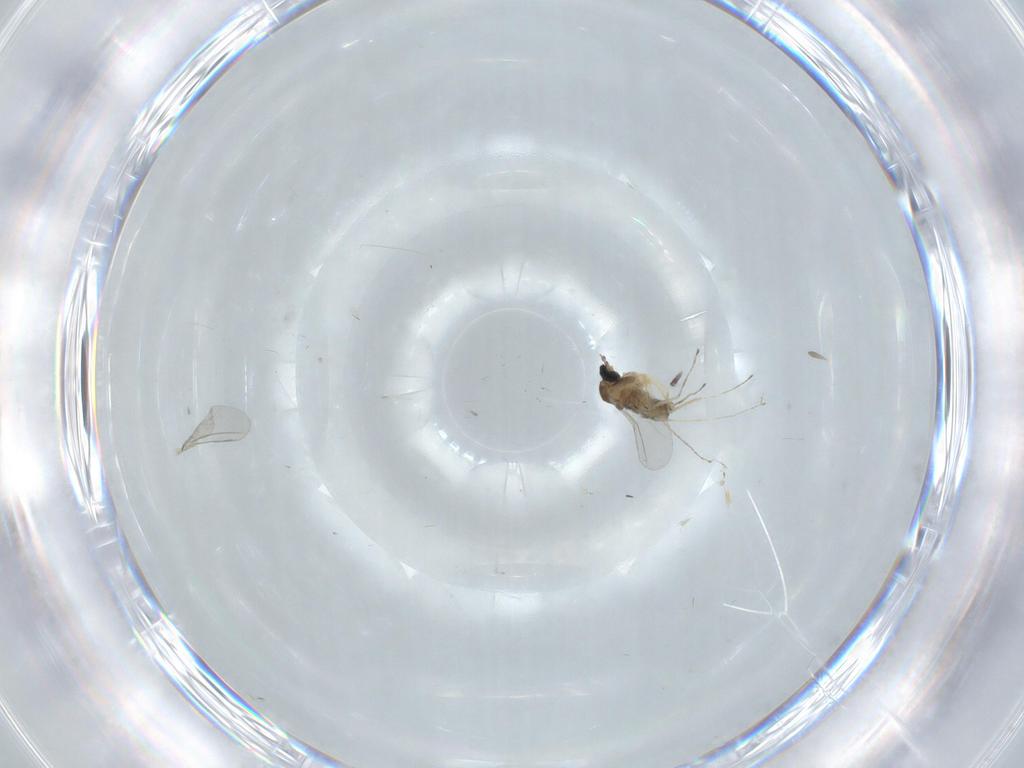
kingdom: Animalia
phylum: Arthropoda
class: Insecta
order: Diptera
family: Cecidomyiidae
